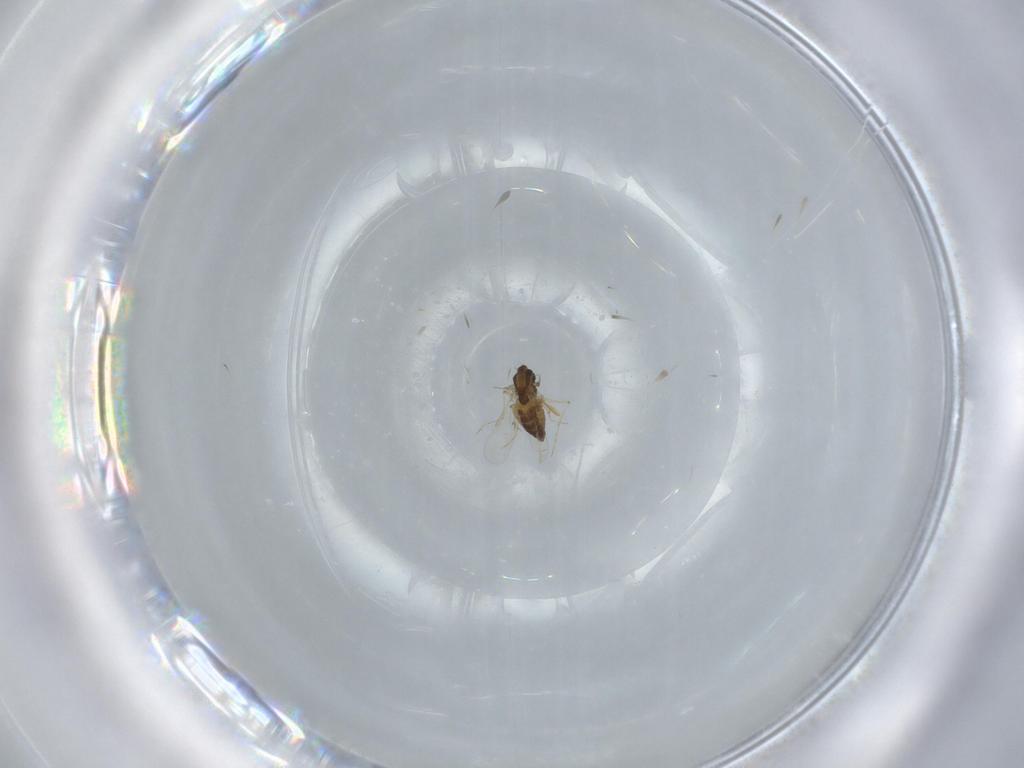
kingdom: Animalia
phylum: Arthropoda
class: Insecta
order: Diptera
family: Chironomidae
